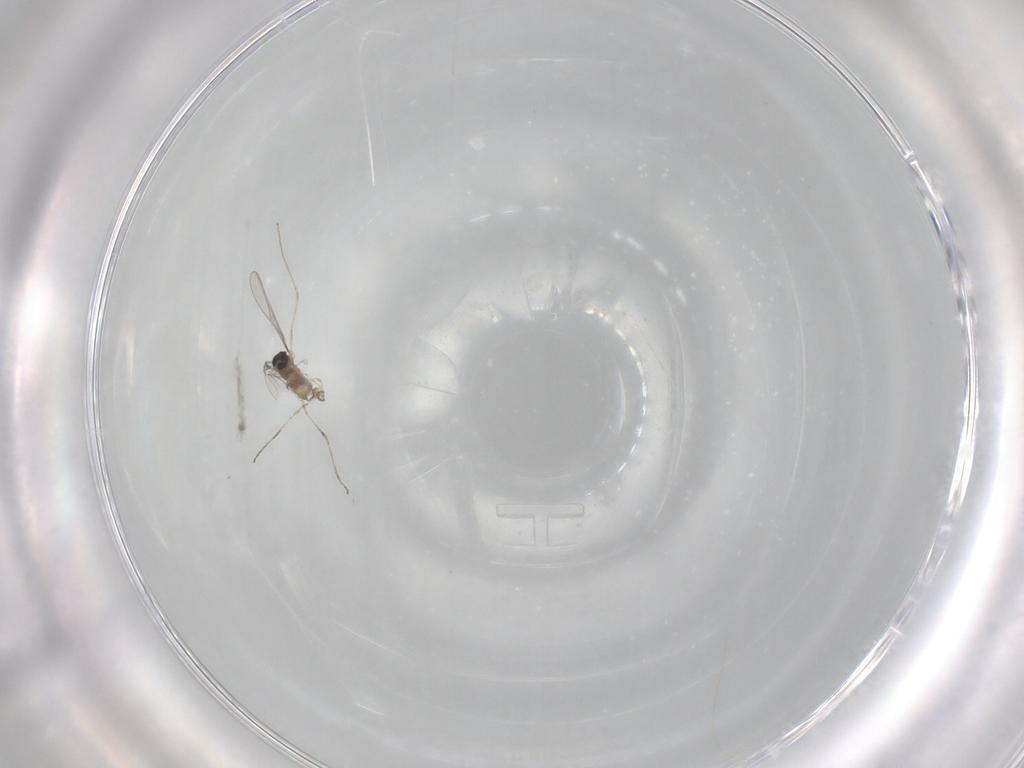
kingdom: Animalia
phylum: Arthropoda
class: Insecta
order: Diptera
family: Cecidomyiidae
